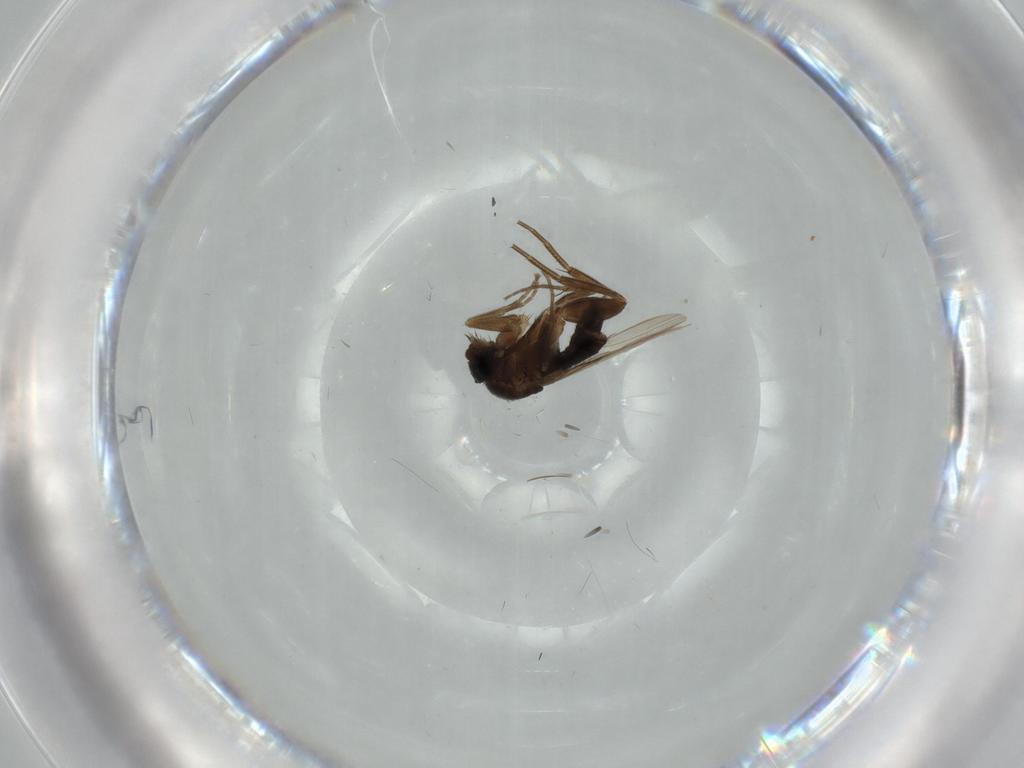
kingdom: Animalia
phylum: Arthropoda
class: Insecta
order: Diptera
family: Phoridae
